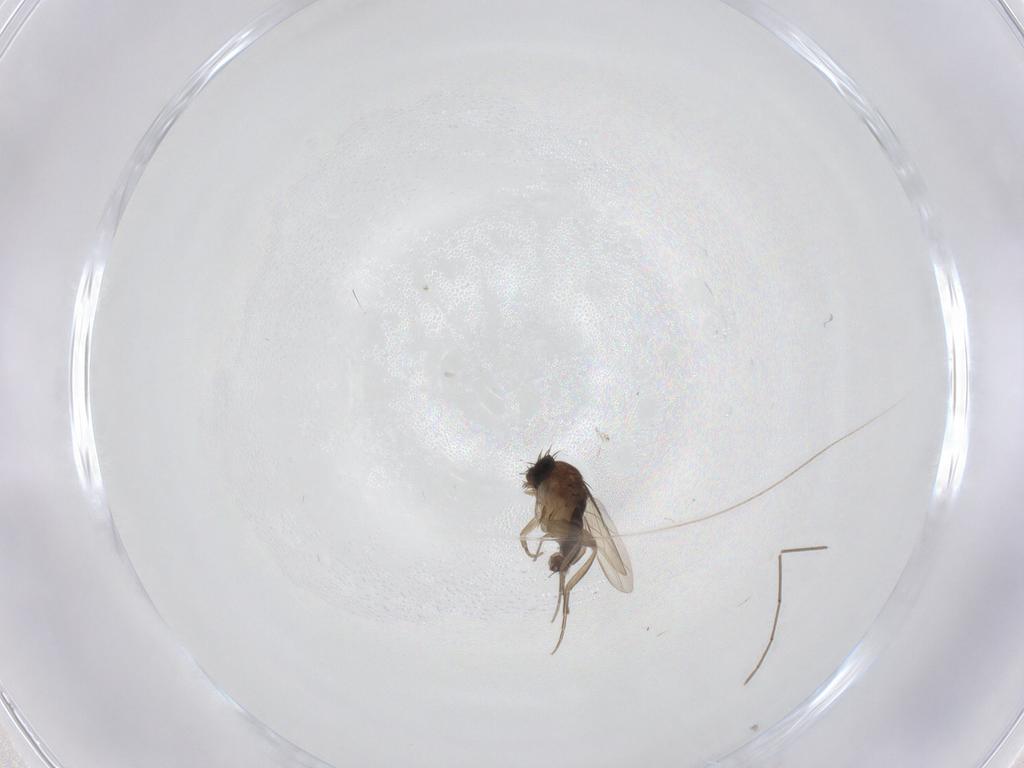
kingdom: Animalia
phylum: Arthropoda
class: Insecta
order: Diptera
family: Phoridae
